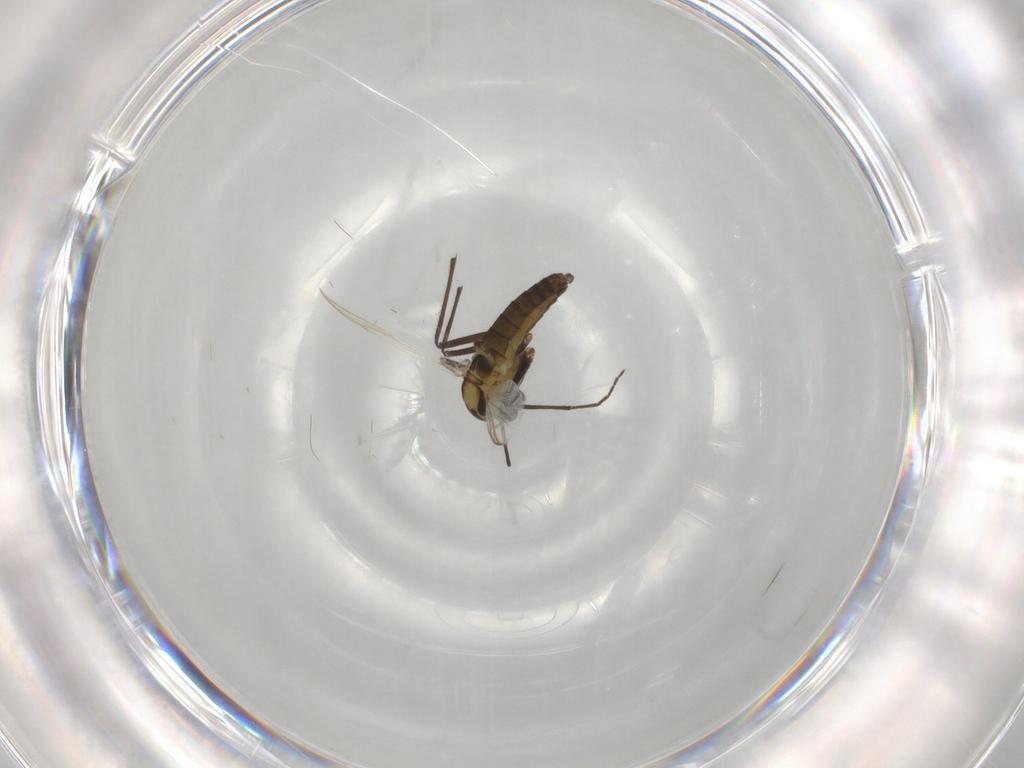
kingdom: Animalia
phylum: Arthropoda
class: Insecta
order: Diptera
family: Chironomidae
